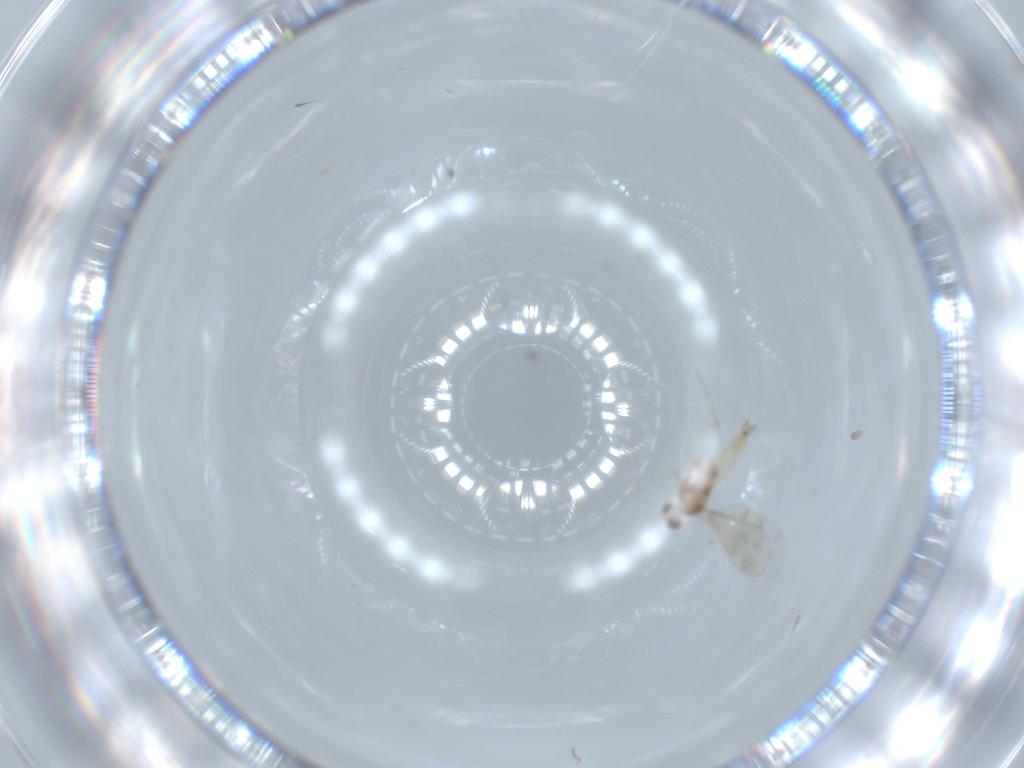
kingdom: Animalia
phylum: Arthropoda
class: Insecta
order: Diptera
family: Cecidomyiidae
